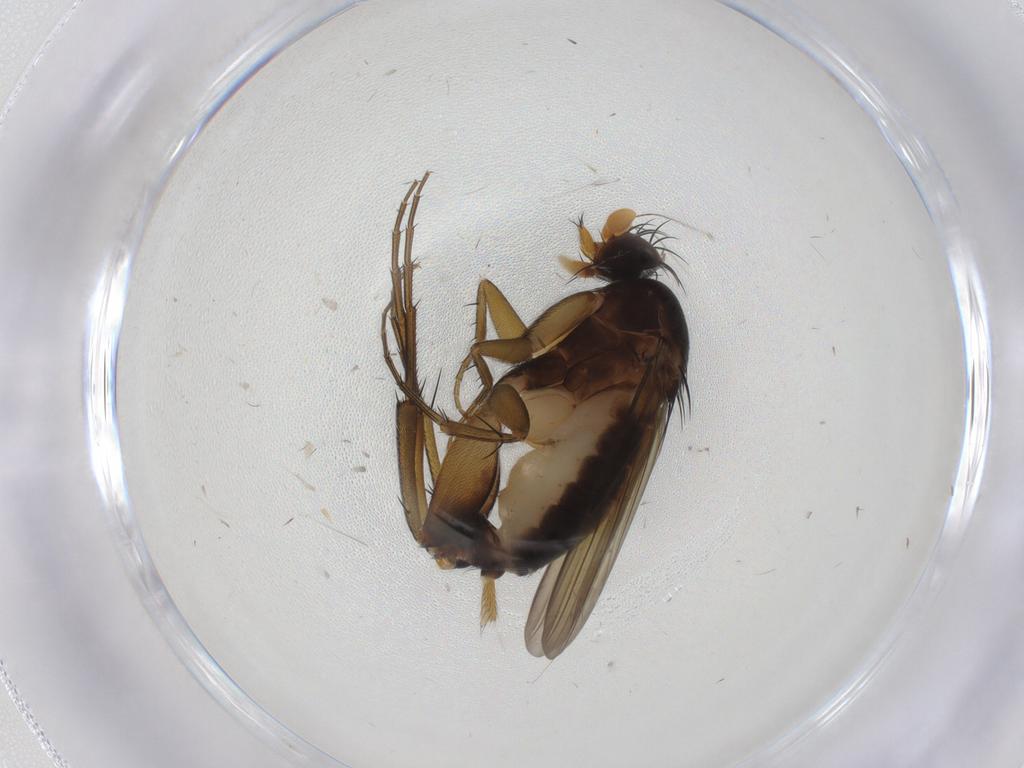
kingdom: Animalia
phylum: Arthropoda
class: Insecta
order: Diptera
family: Phoridae
